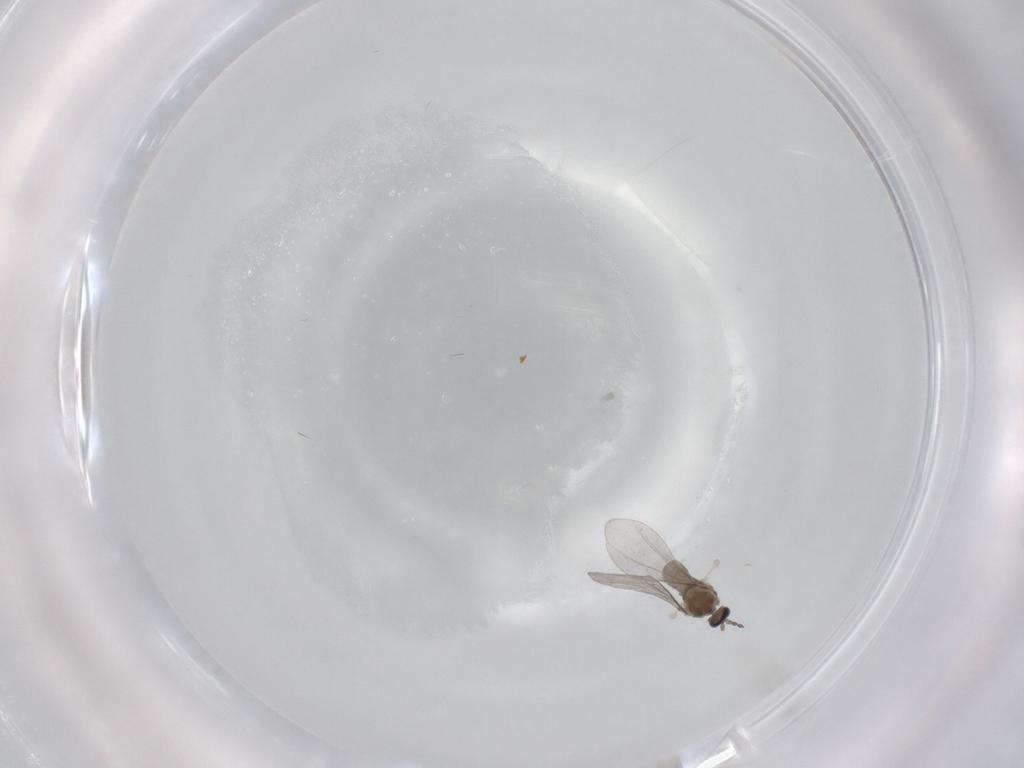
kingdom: Animalia
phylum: Arthropoda
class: Insecta
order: Diptera
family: Cecidomyiidae
